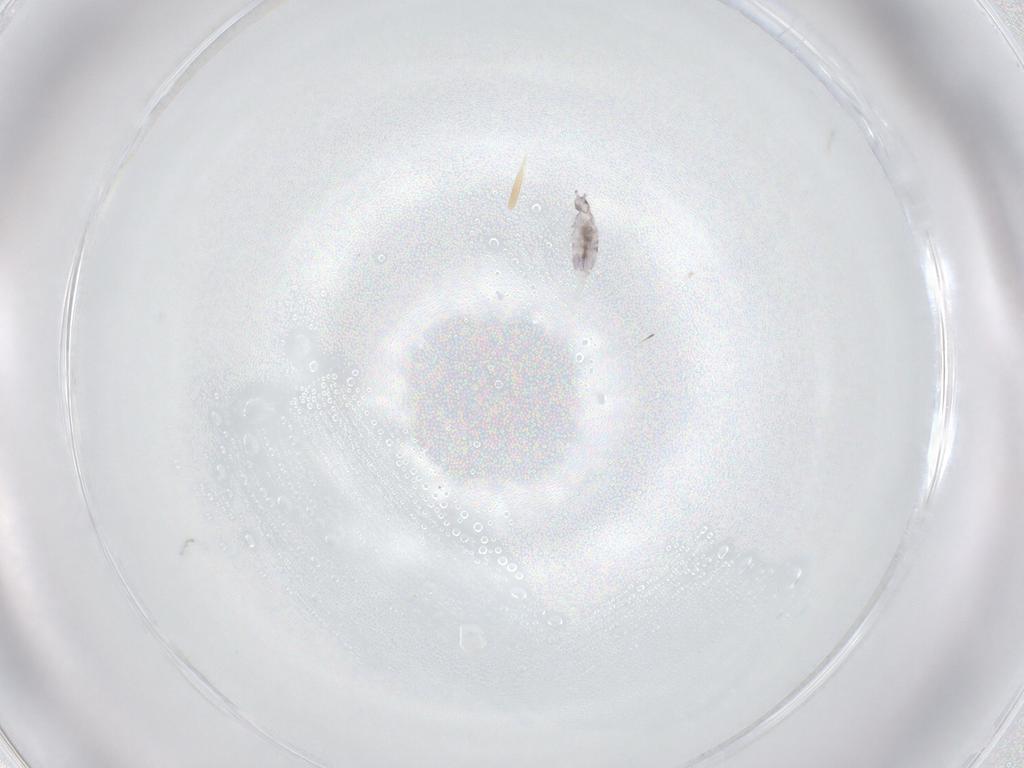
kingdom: Animalia
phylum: Arthropoda
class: Collembola
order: Entomobryomorpha
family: Entomobryidae
